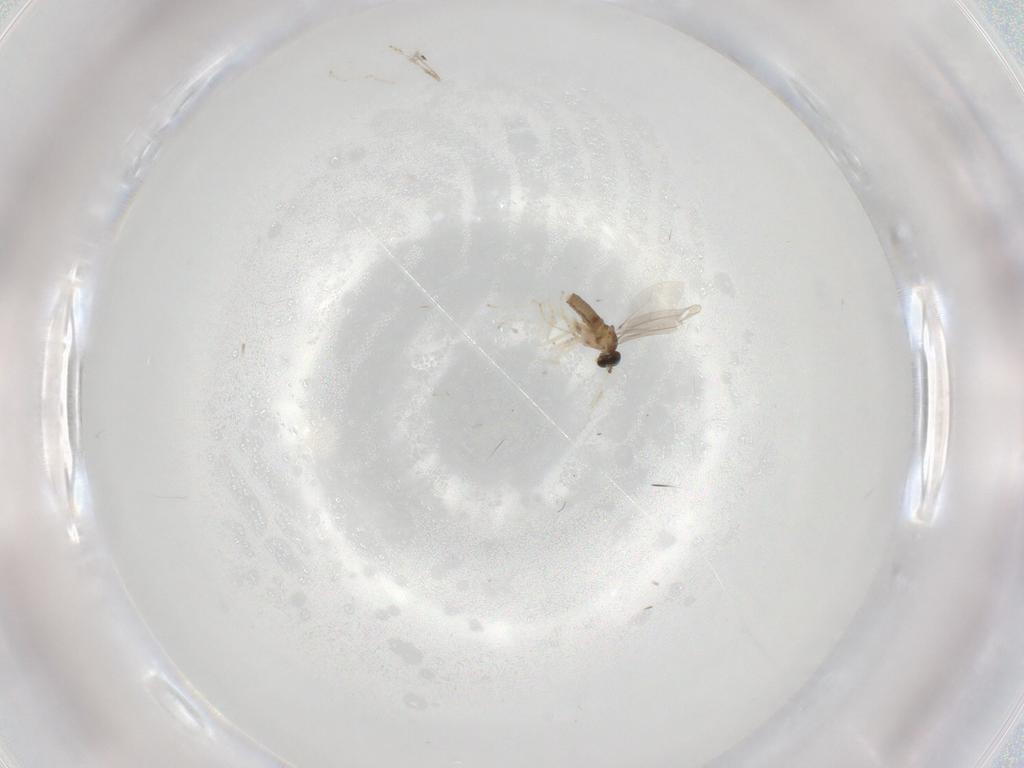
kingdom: Animalia
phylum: Arthropoda
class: Insecta
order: Diptera
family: Cecidomyiidae
